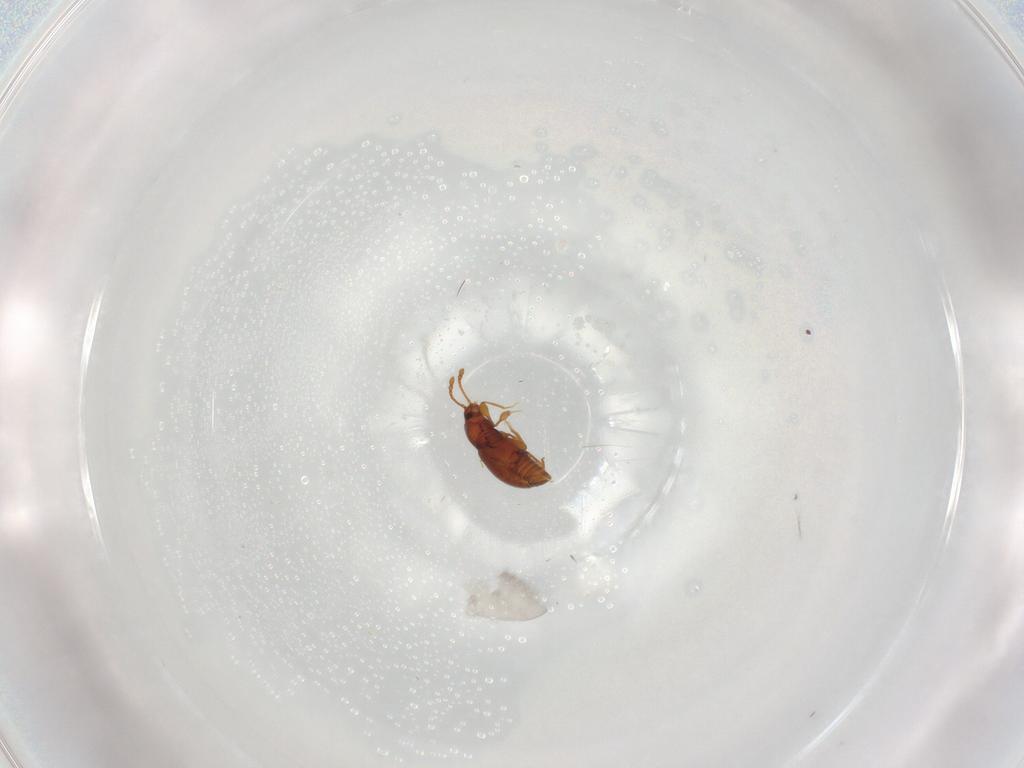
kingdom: Animalia
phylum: Arthropoda
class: Insecta
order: Coleoptera
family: Staphylinidae
